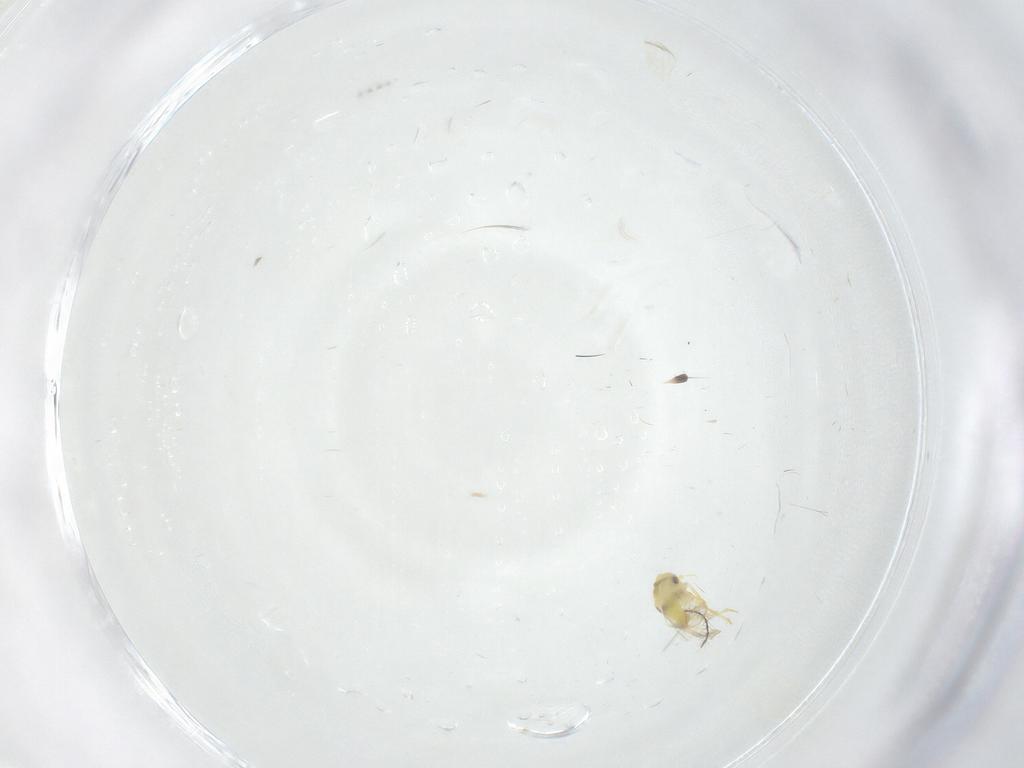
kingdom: Animalia
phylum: Arthropoda
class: Insecta
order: Hemiptera
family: Aleyrodidae
